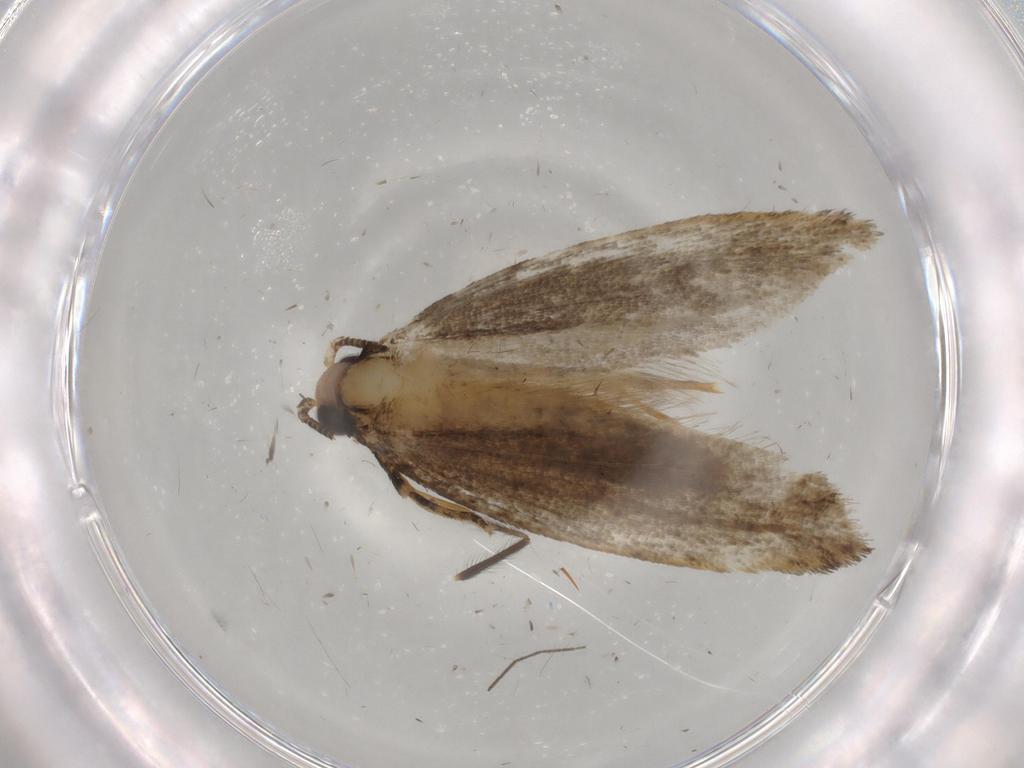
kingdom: Animalia
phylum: Arthropoda
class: Insecta
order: Lepidoptera
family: Tineidae
